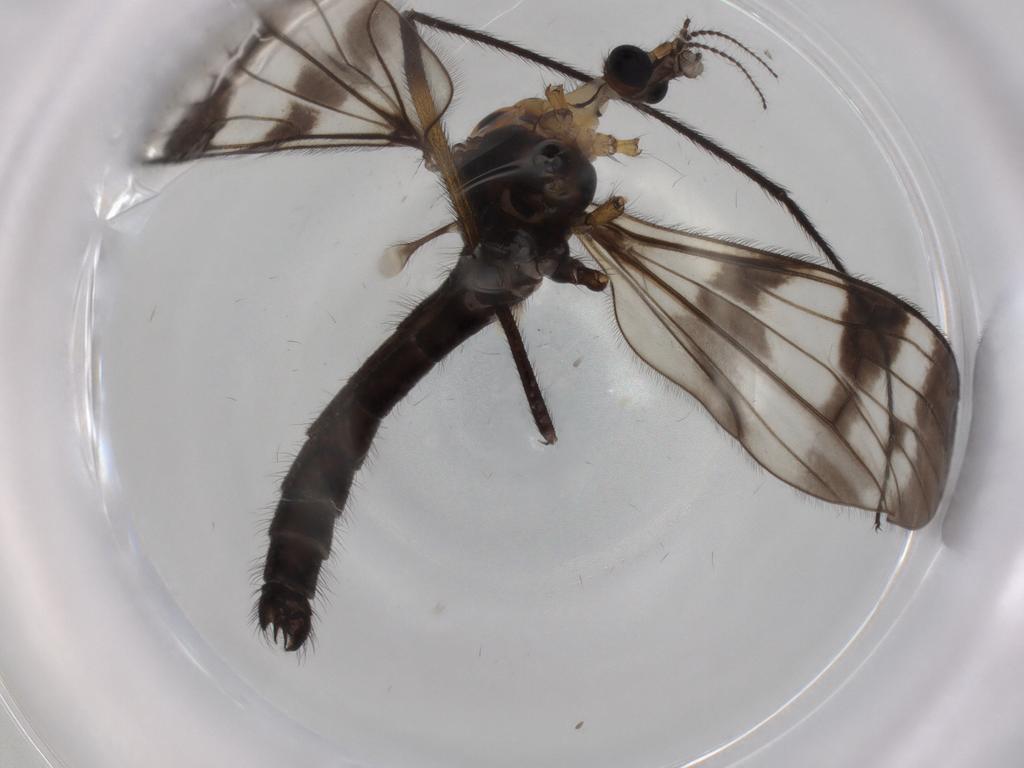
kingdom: Animalia
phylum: Arthropoda
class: Insecta
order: Diptera
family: Limoniidae
